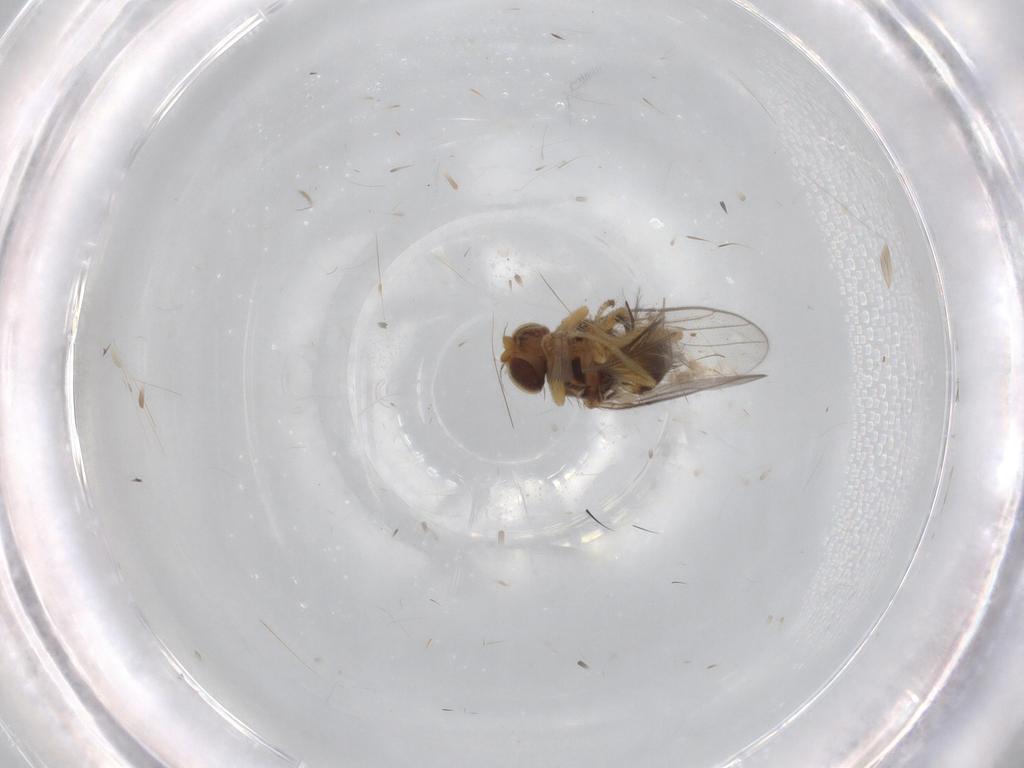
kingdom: Animalia
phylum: Arthropoda
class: Insecta
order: Diptera
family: Chloropidae
